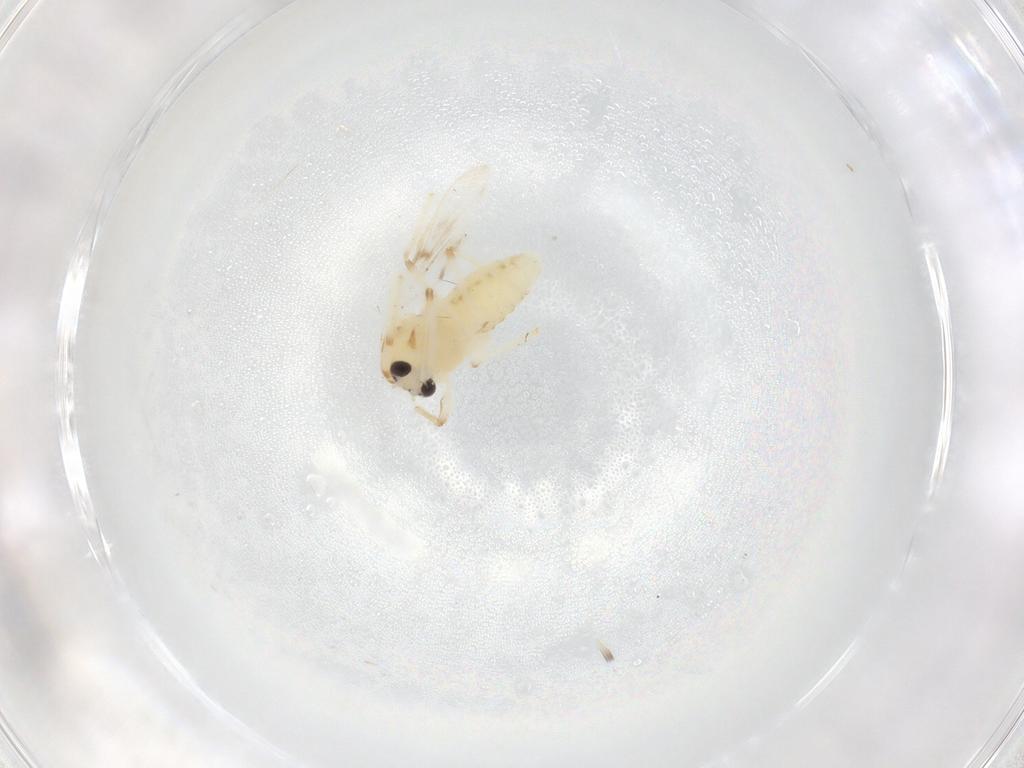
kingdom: Animalia
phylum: Arthropoda
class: Insecta
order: Diptera
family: Chironomidae
